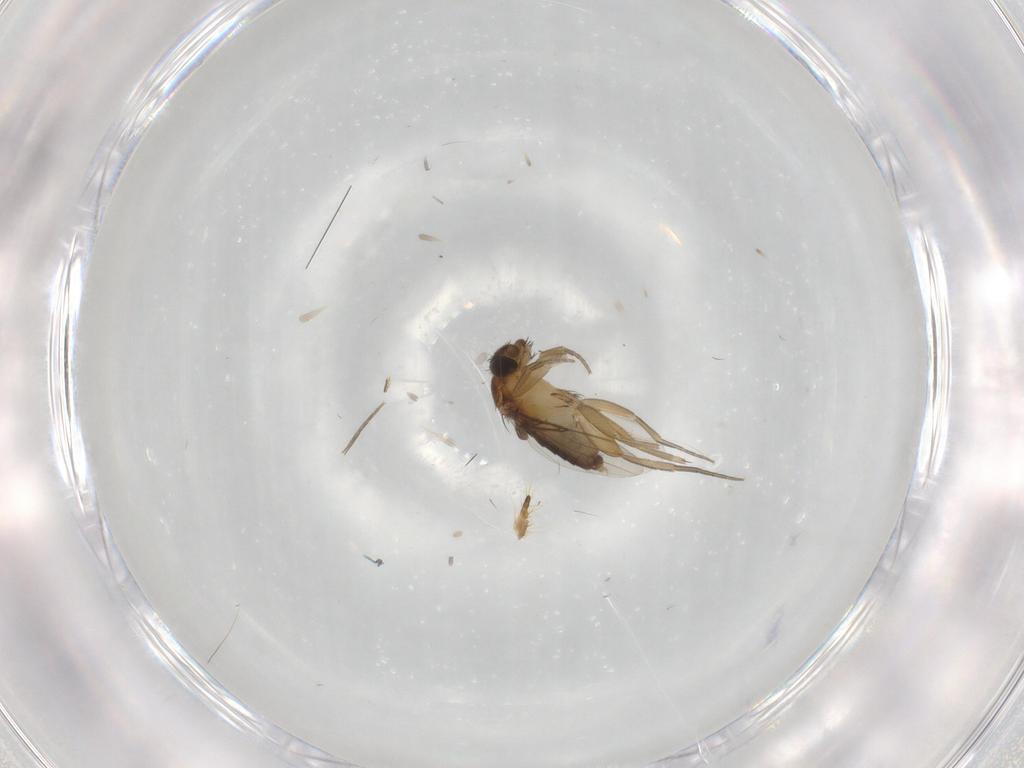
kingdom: Animalia
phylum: Arthropoda
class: Insecta
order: Diptera
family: Phoridae
